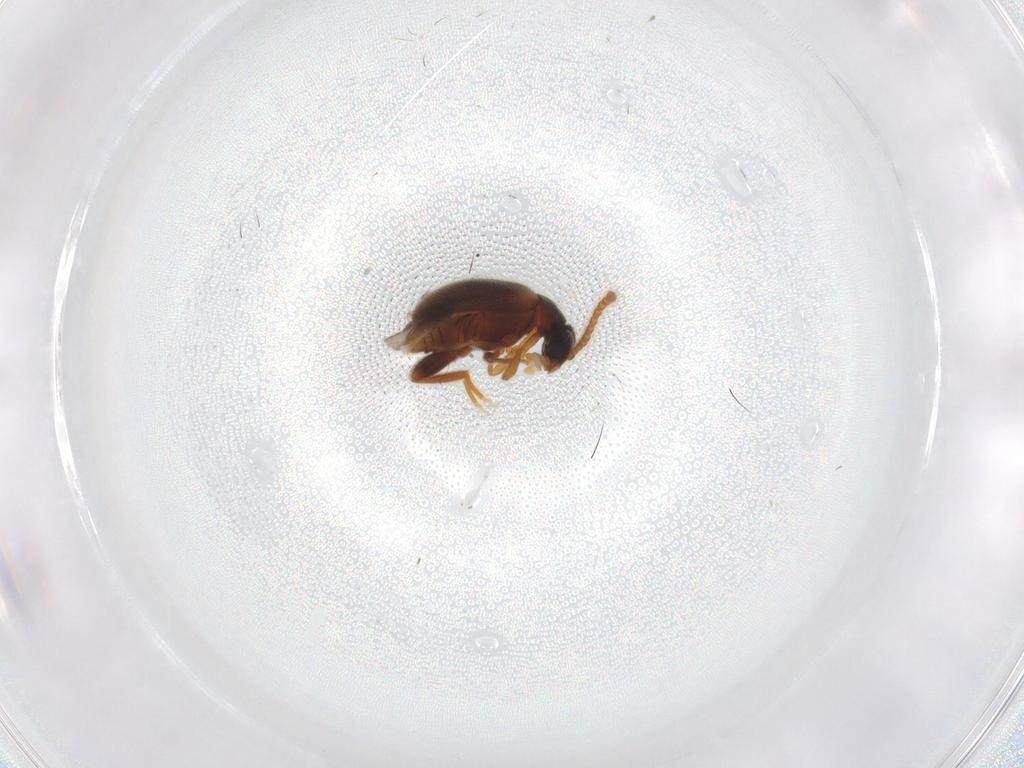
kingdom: Animalia
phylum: Arthropoda
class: Insecta
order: Coleoptera
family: Aderidae
